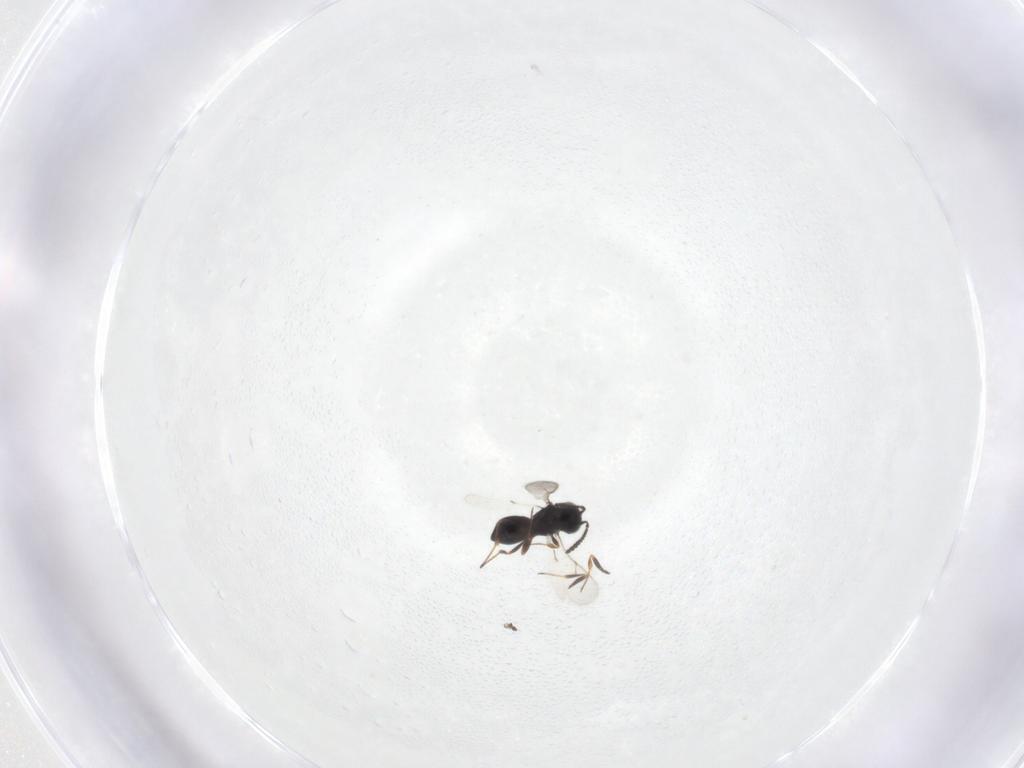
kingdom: Animalia
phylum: Arthropoda
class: Insecta
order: Hymenoptera
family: Scelionidae
